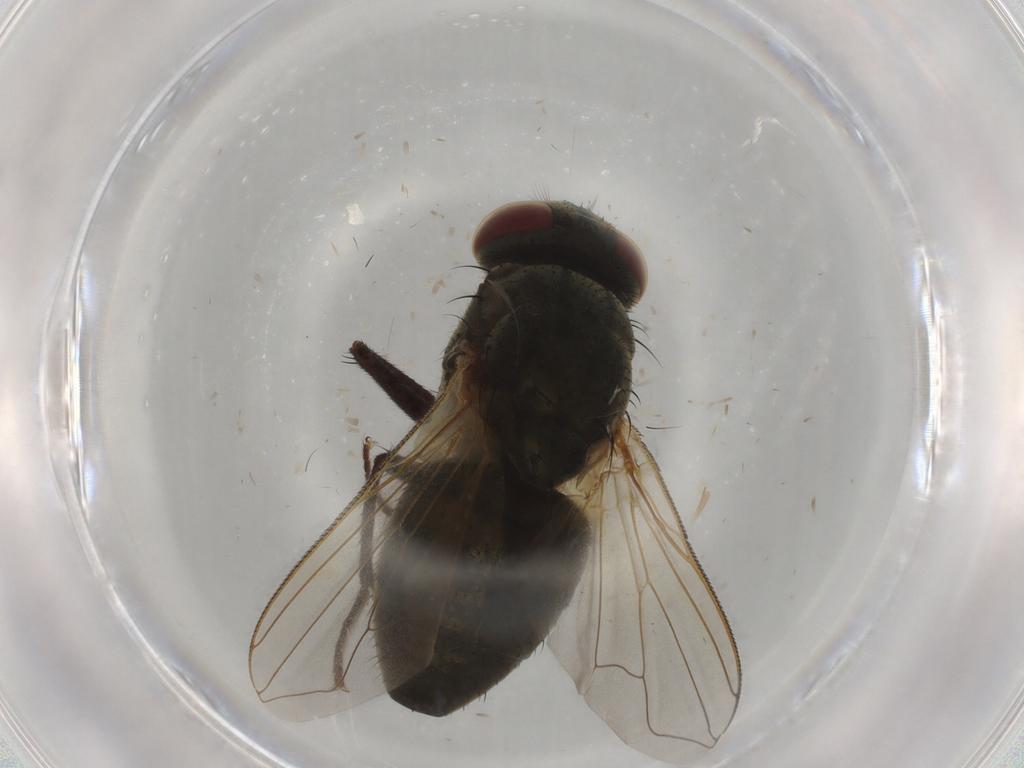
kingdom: Animalia
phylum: Arthropoda
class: Insecta
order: Diptera
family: Muscidae
